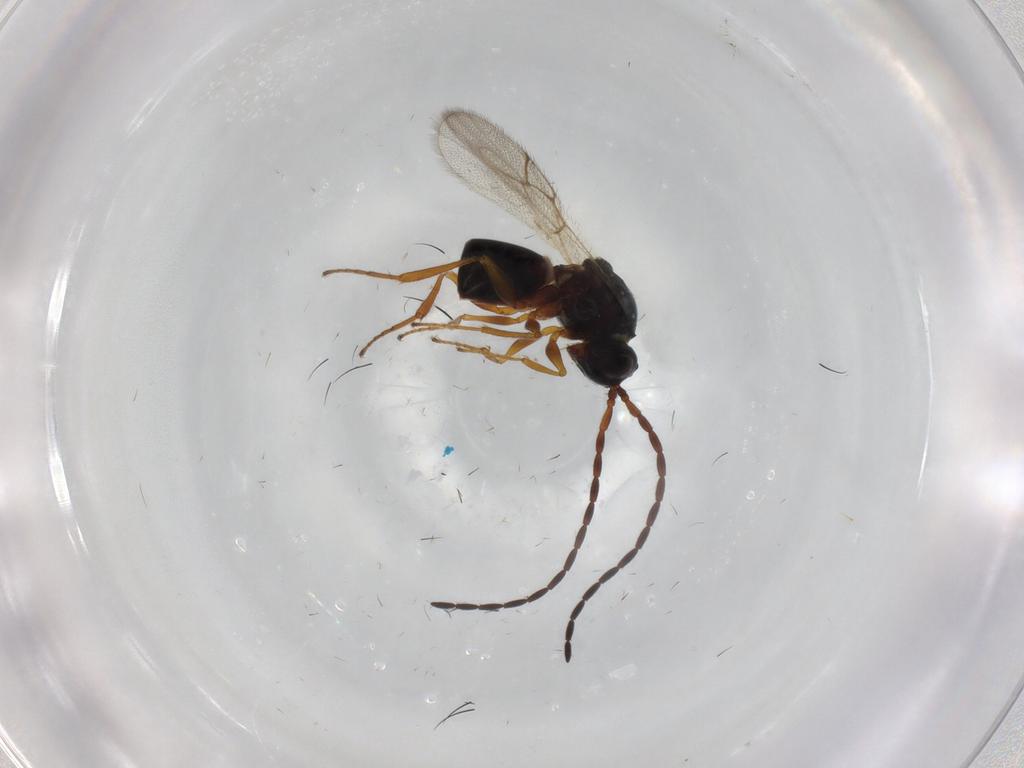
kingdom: Animalia
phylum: Arthropoda
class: Insecta
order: Hymenoptera
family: Figitidae
